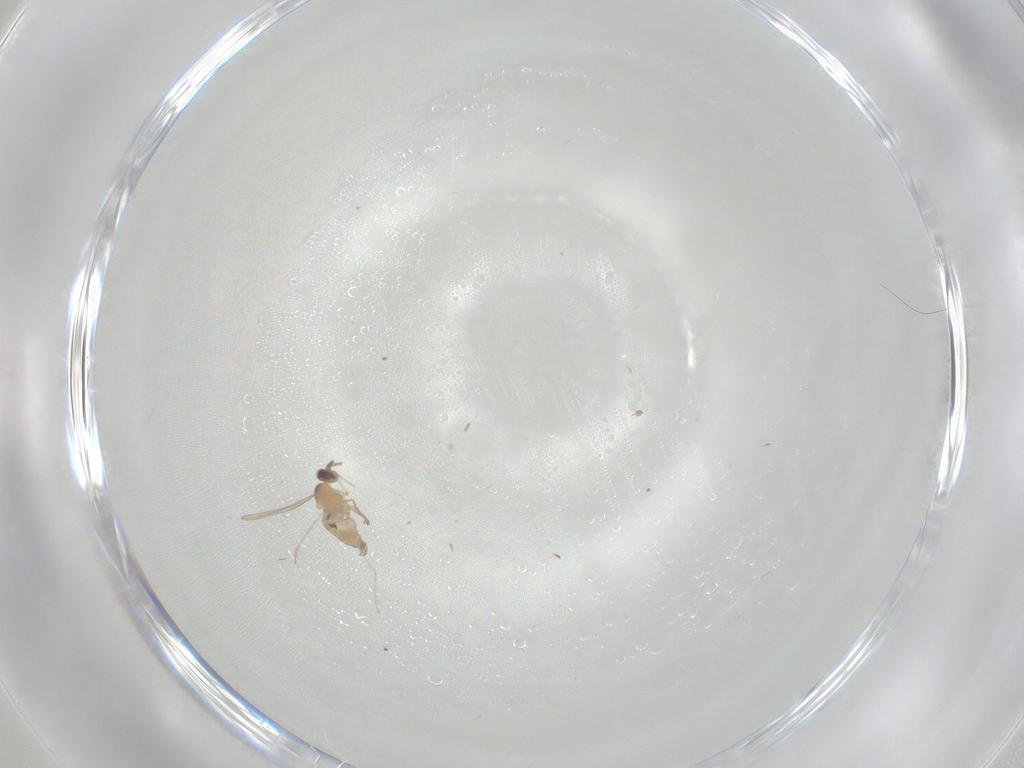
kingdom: Animalia
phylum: Arthropoda
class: Insecta
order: Diptera
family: Cecidomyiidae
